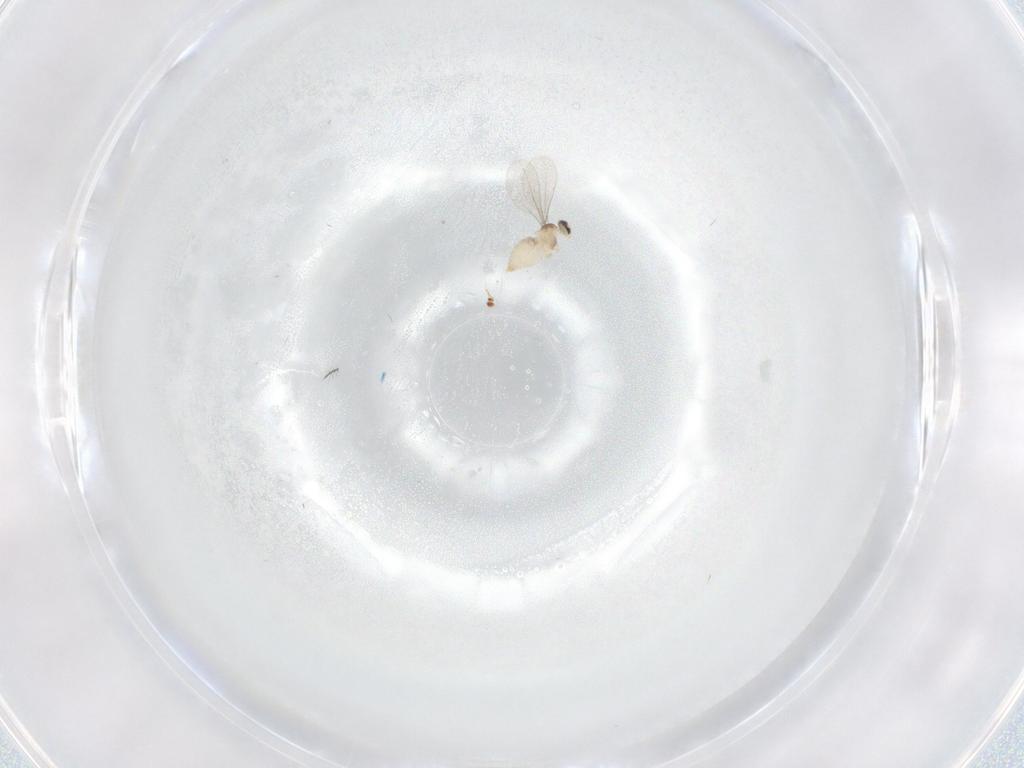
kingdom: Animalia
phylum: Arthropoda
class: Insecta
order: Diptera
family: Cecidomyiidae
